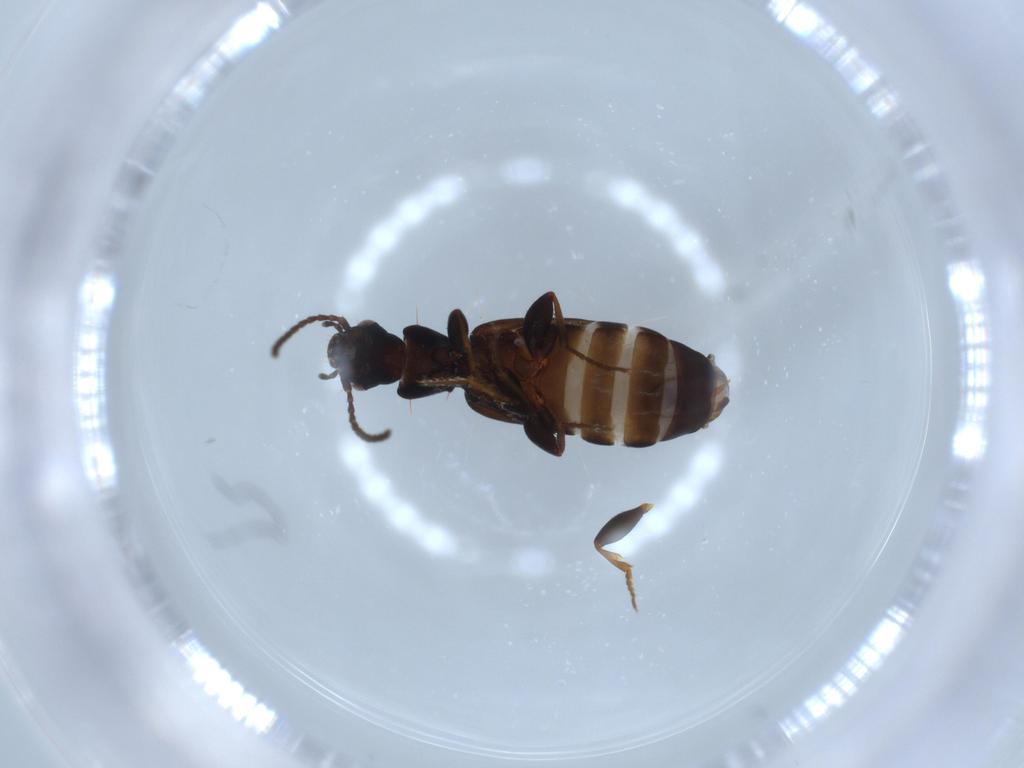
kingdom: Animalia
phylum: Arthropoda
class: Insecta
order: Coleoptera
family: Carabidae
